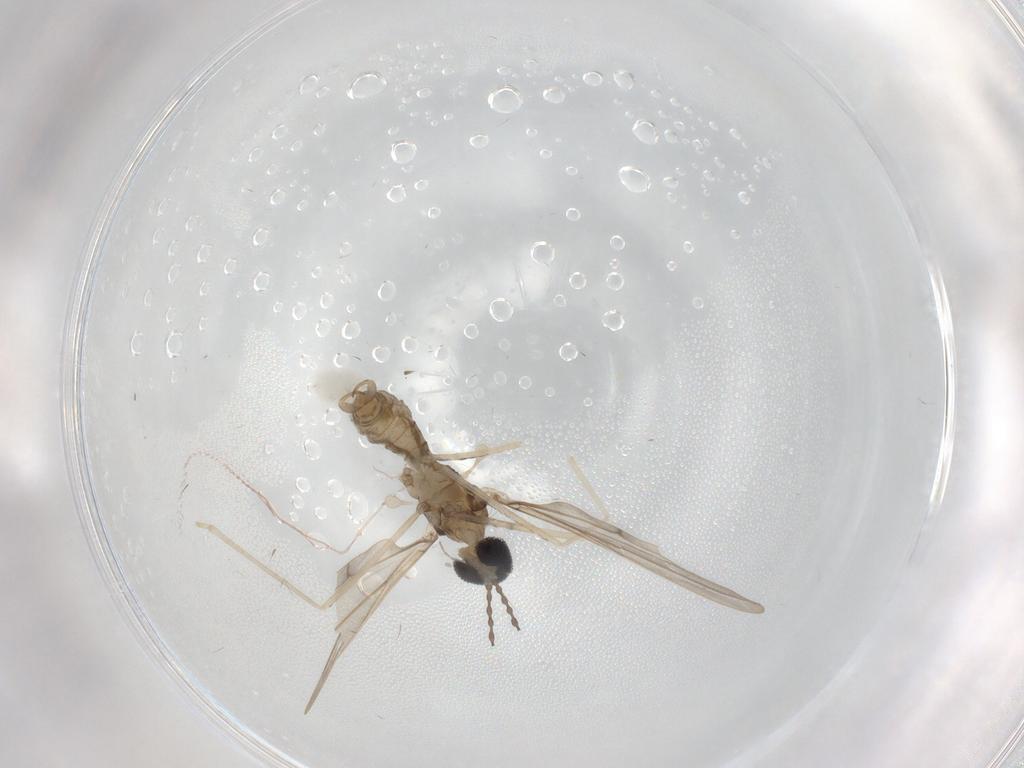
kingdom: Animalia
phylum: Arthropoda
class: Insecta
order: Diptera
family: Cecidomyiidae
